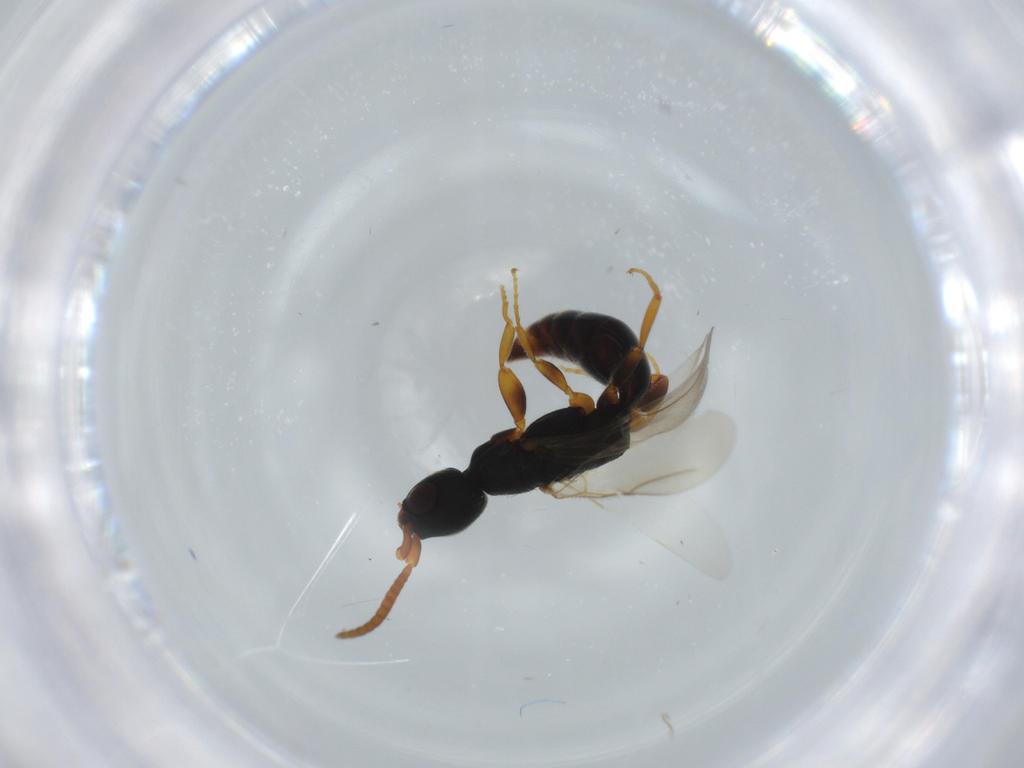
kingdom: Animalia
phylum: Arthropoda
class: Insecta
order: Hymenoptera
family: Bethylidae
